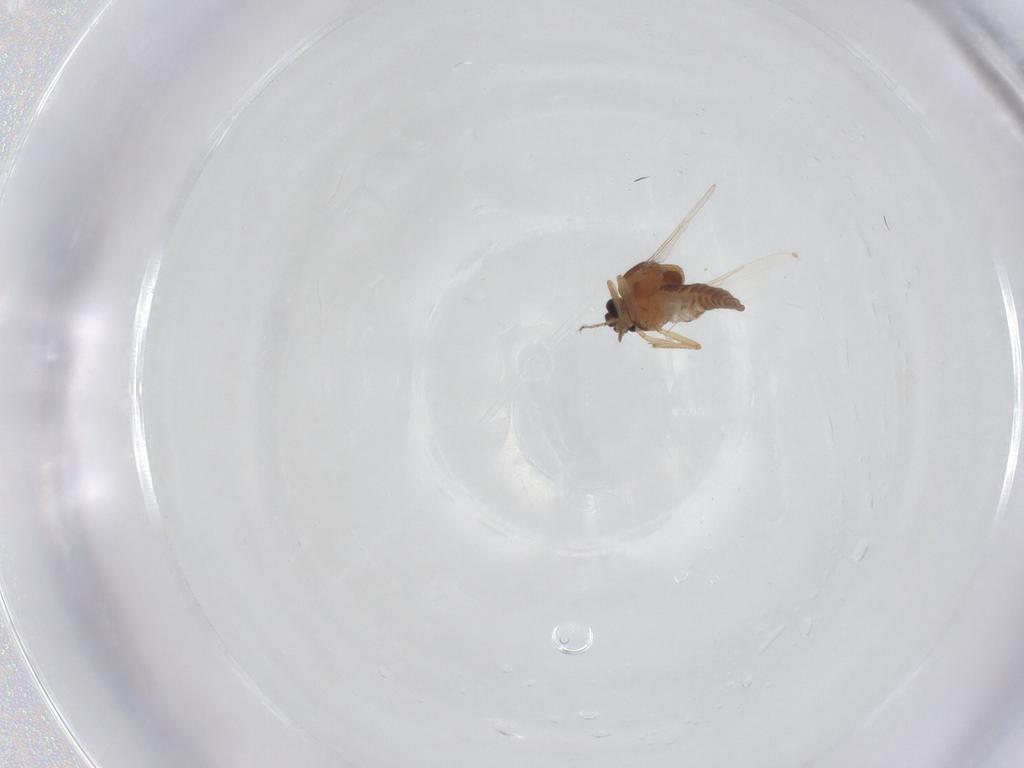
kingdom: Animalia
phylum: Arthropoda
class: Insecta
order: Diptera
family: Ceratopogonidae
